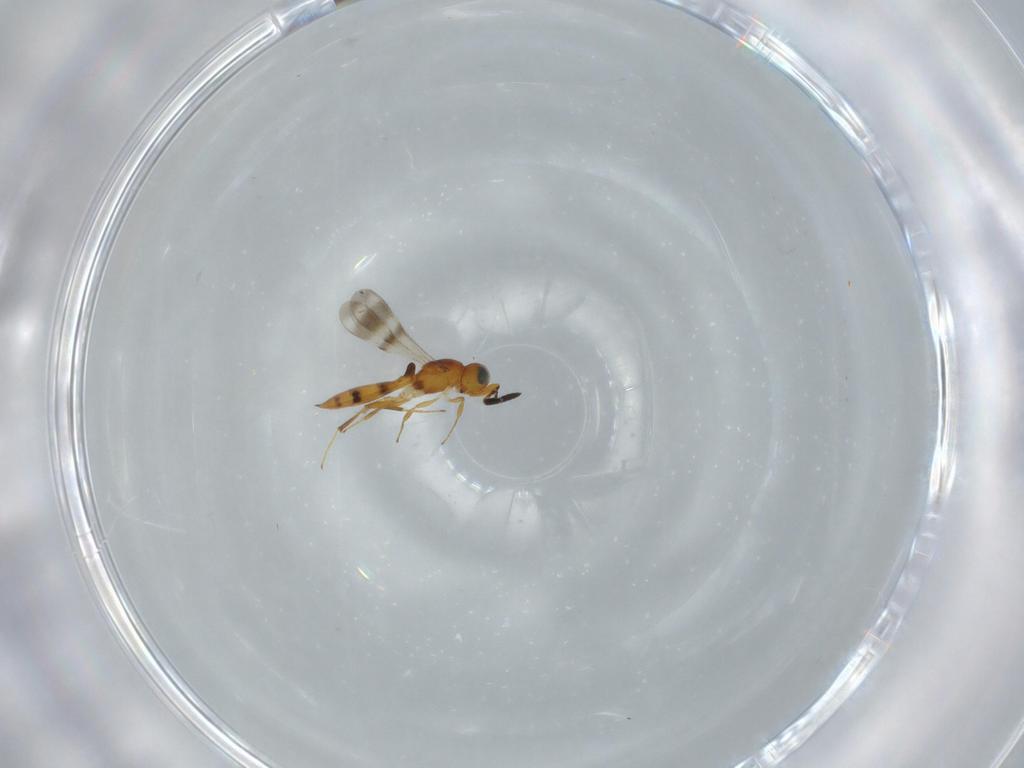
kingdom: Animalia
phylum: Arthropoda
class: Insecta
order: Hymenoptera
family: Scelionidae
